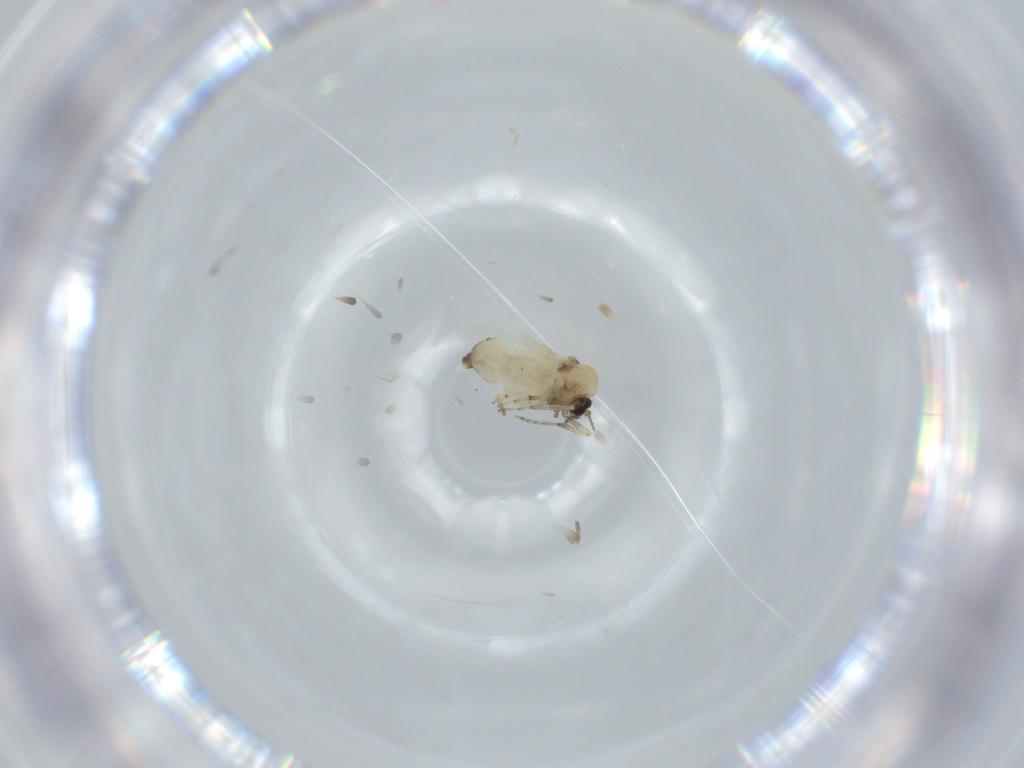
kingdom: Animalia
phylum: Arthropoda
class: Insecta
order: Diptera
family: Ceratopogonidae
